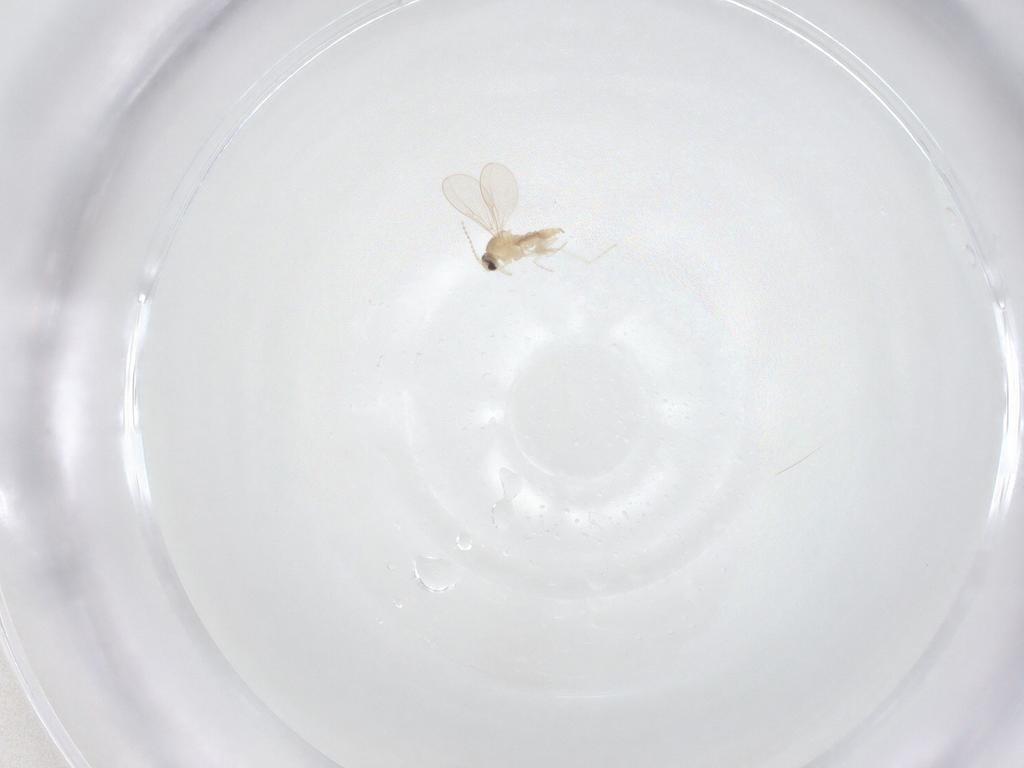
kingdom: Animalia
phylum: Arthropoda
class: Insecta
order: Diptera
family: Cecidomyiidae
